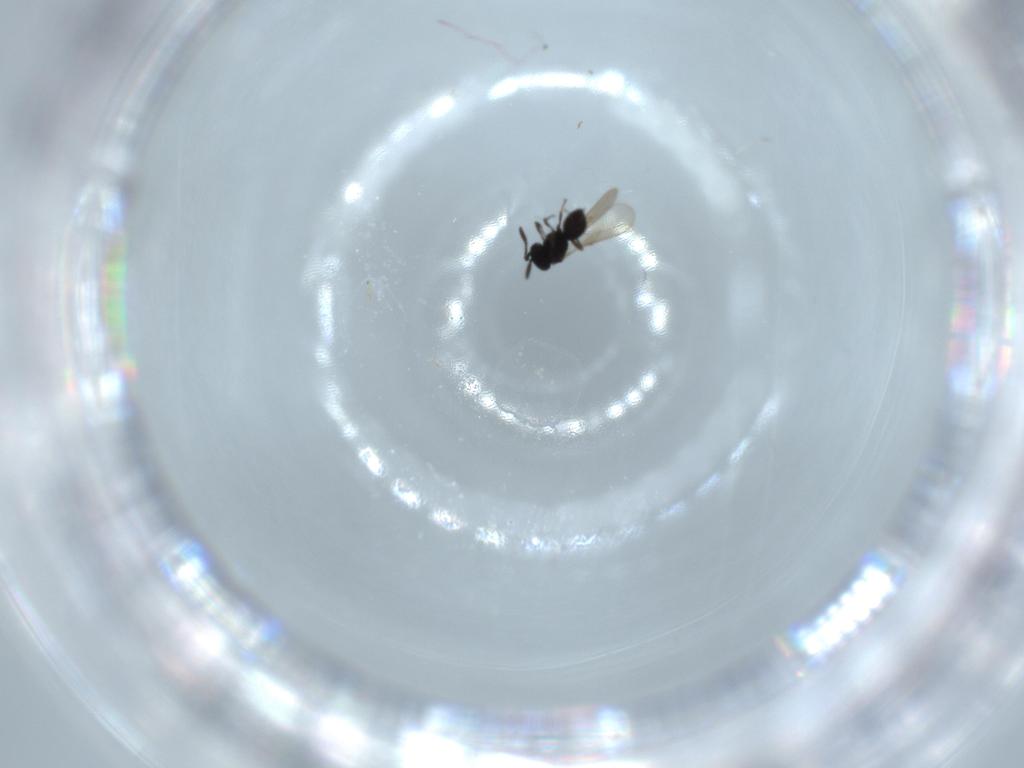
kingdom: Animalia
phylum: Arthropoda
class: Insecta
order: Hymenoptera
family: Scelionidae
